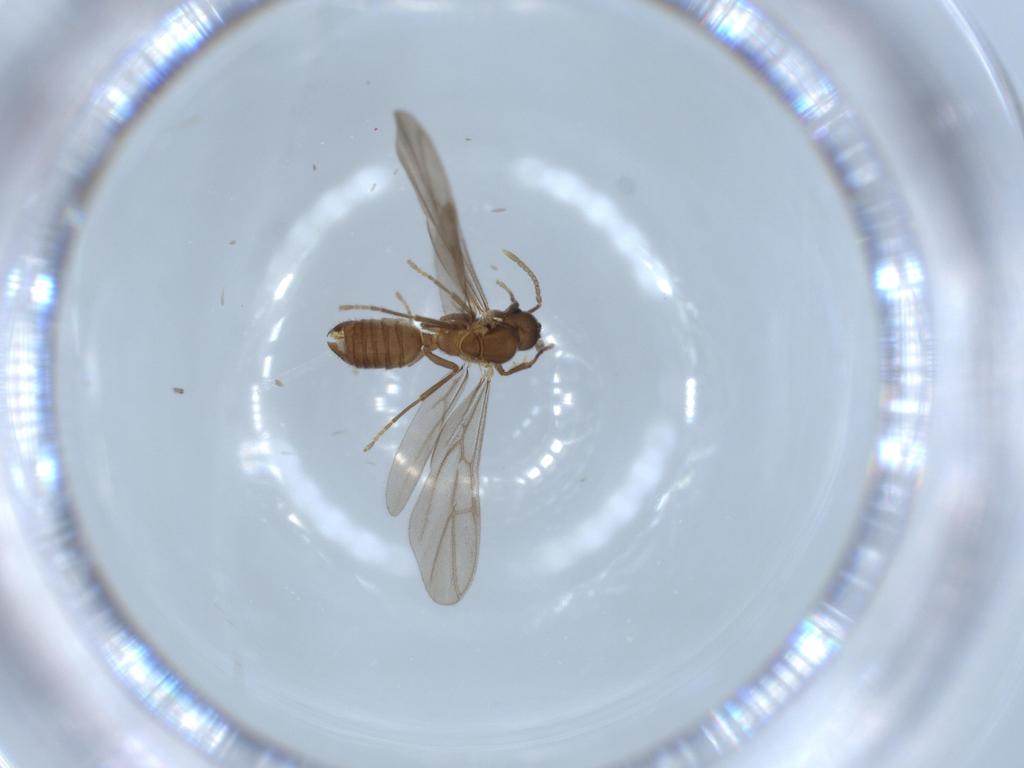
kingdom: Animalia
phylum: Arthropoda
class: Insecta
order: Hymenoptera
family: Formicidae
